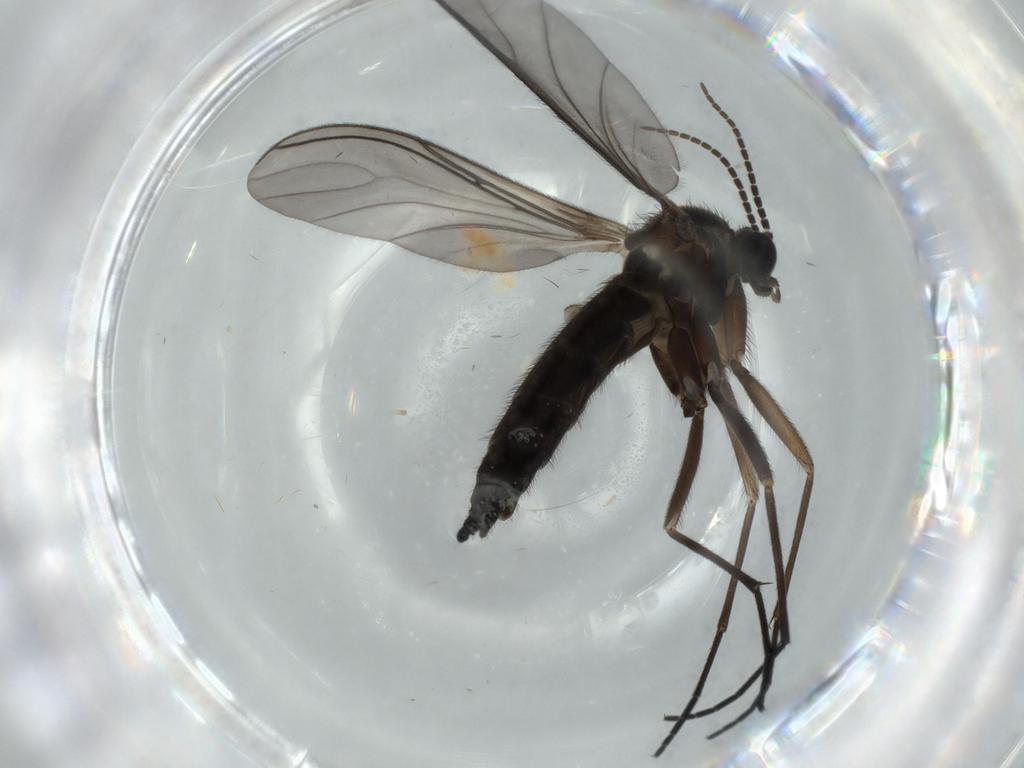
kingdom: Animalia
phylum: Arthropoda
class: Insecta
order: Diptera
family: Sciaridae
